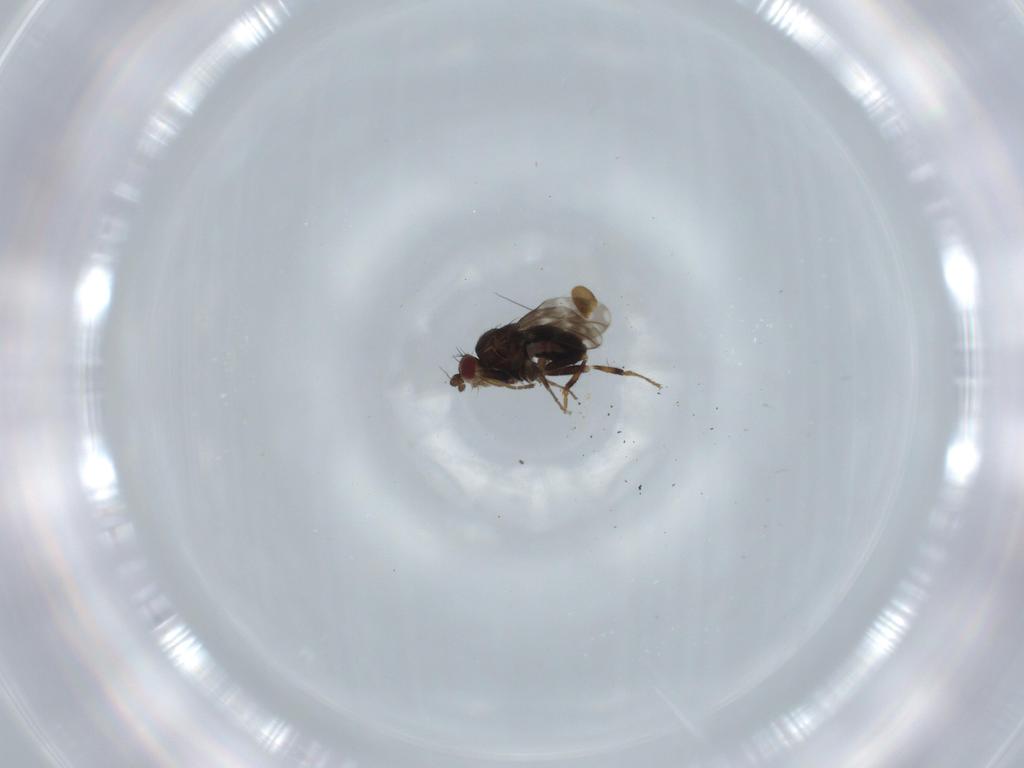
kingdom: Animalia
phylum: Arthropoda
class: Insecta
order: Diptera
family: Sphaeroceridae
